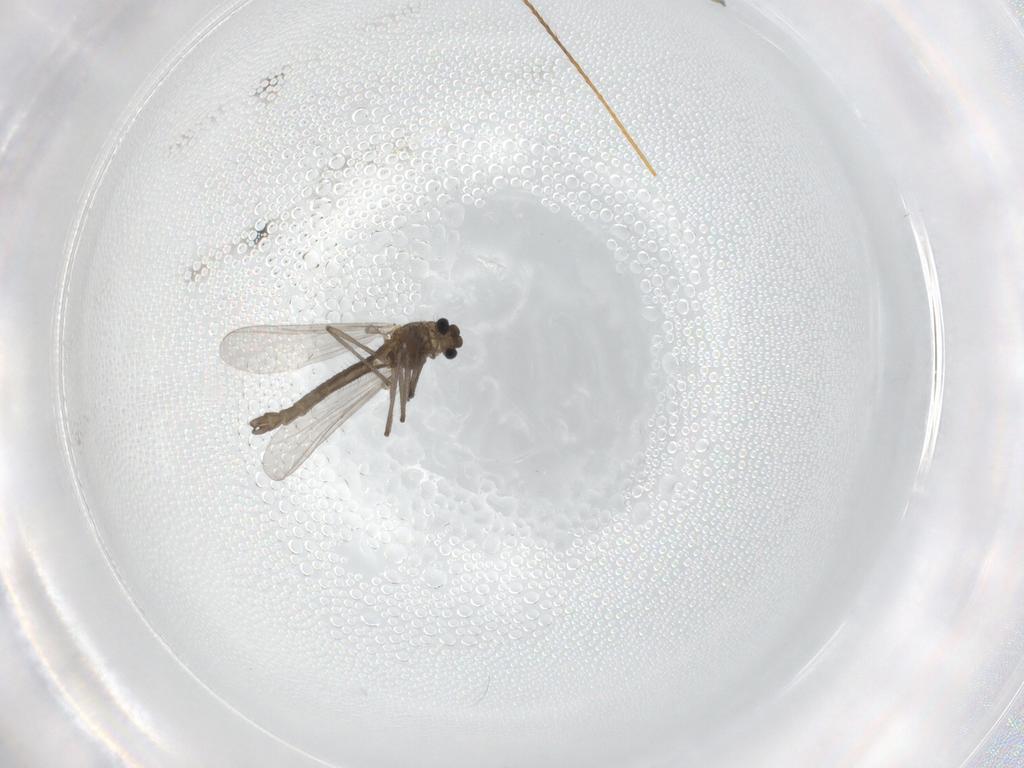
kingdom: Animalia
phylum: Arthropoda
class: Insecta
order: Diptera
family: Chironomidae
